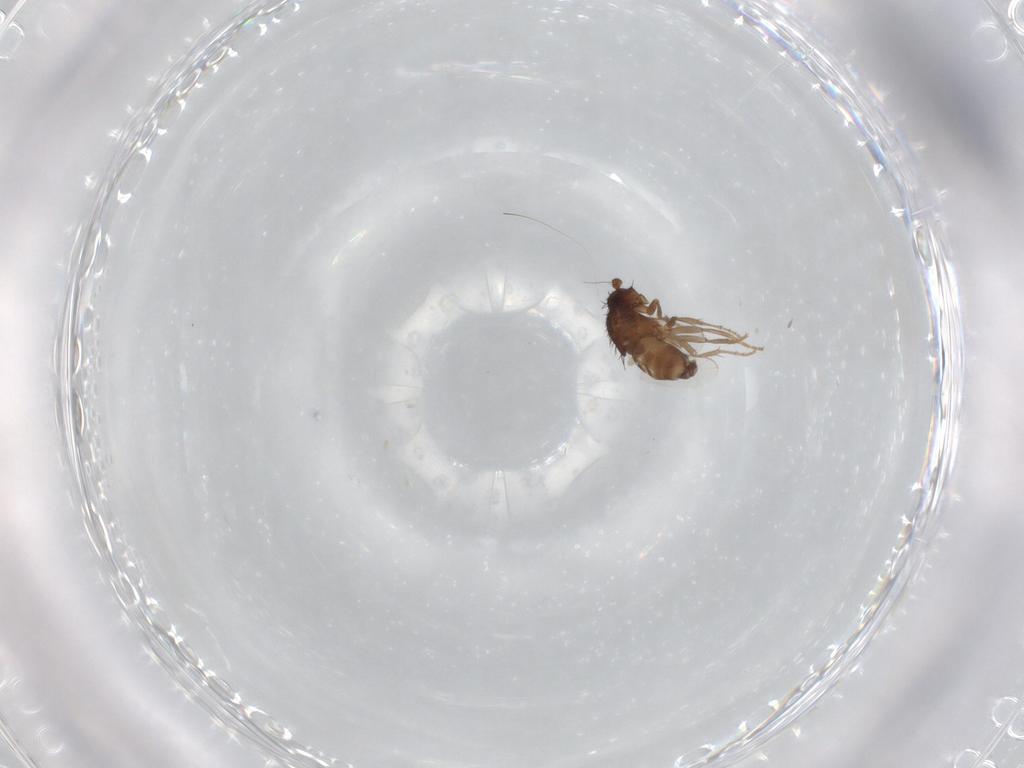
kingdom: Animalia
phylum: Arthropoda
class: Insecta
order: Diptera
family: Sphaeroceridae
